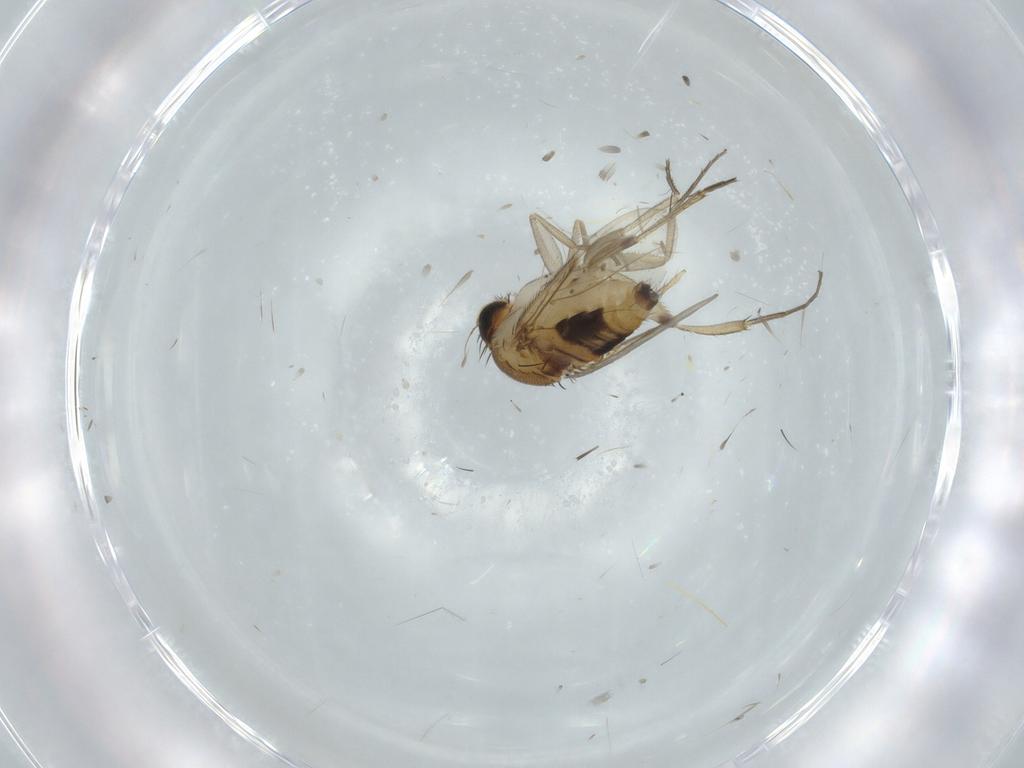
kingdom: Animalia
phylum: Arthropoda
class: Insecta
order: Diptera
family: Phoridae
